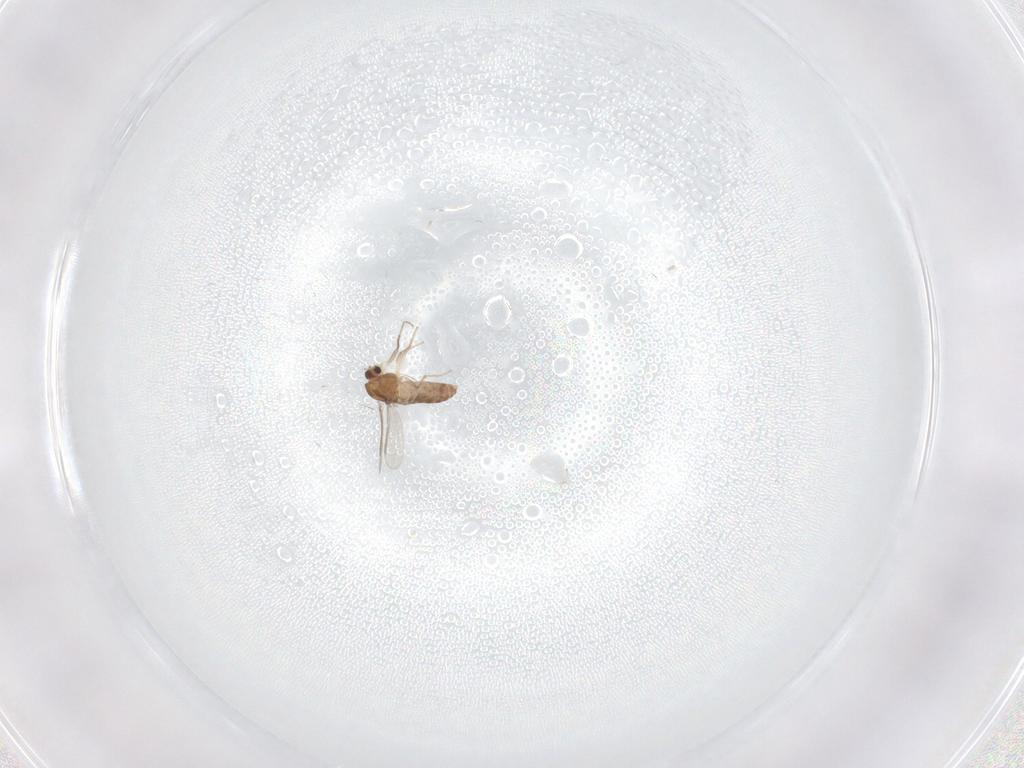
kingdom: Animalia
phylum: Arthropoda
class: Insecta
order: Diptera
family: Chironomidae
